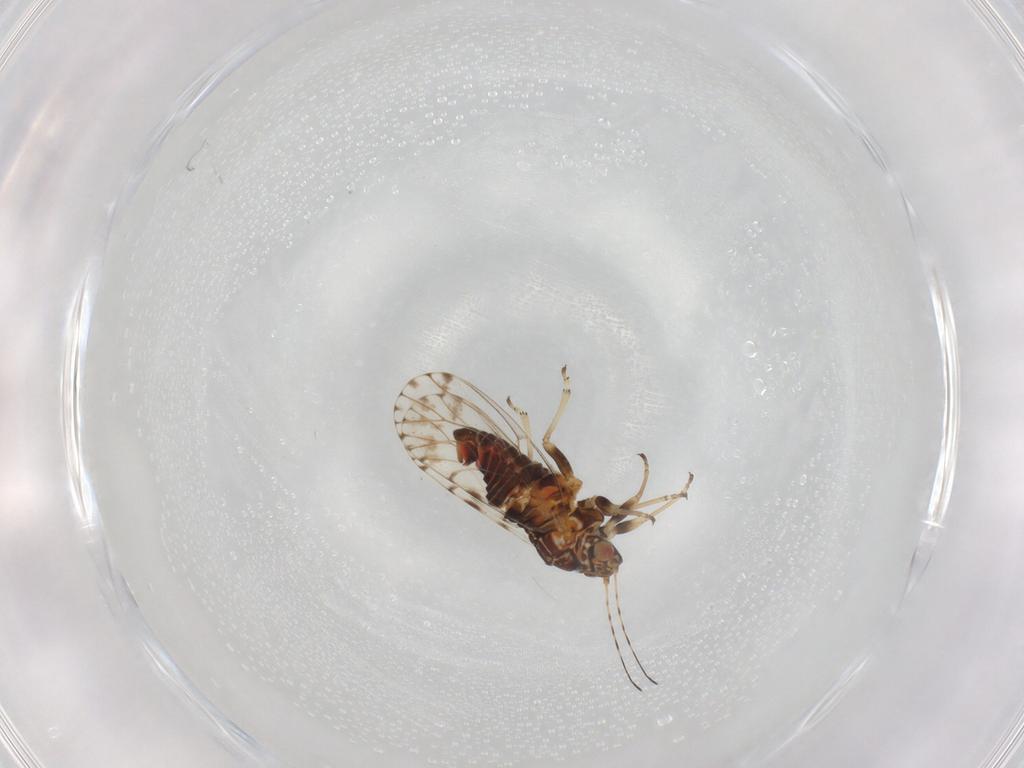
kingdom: Animalia
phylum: Arthropoda
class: Insecta
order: Hemiptera
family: Psyllidae
